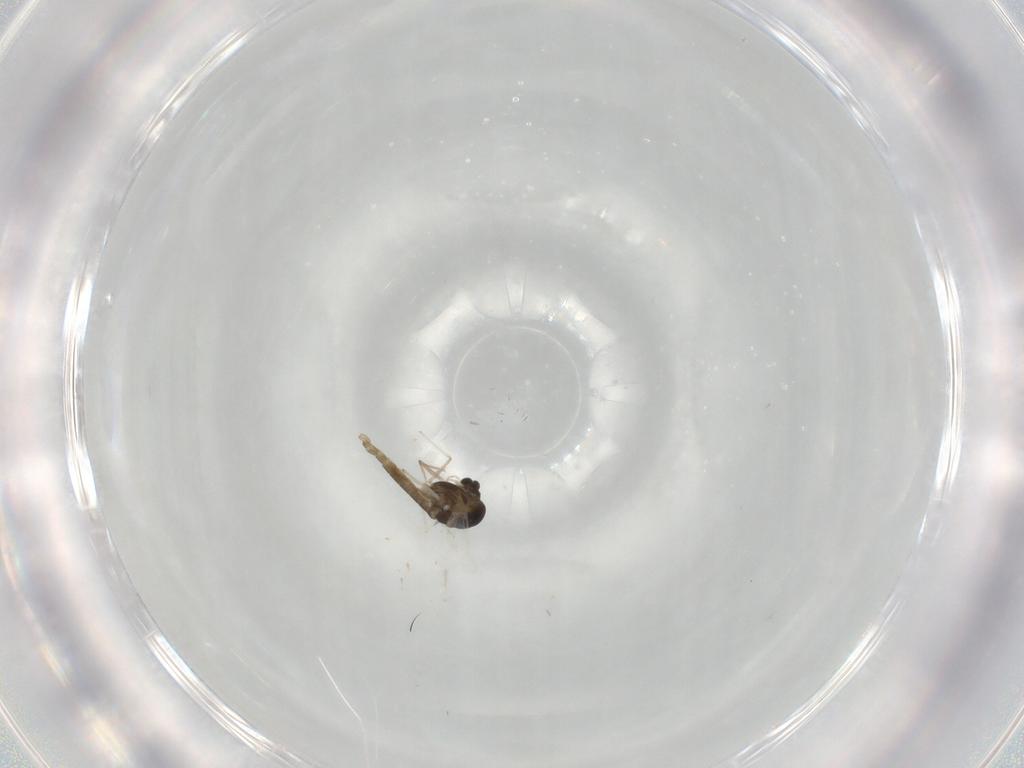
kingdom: Animalia
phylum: Arthropoda
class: Insecta
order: Diptera
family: Chironomidae
